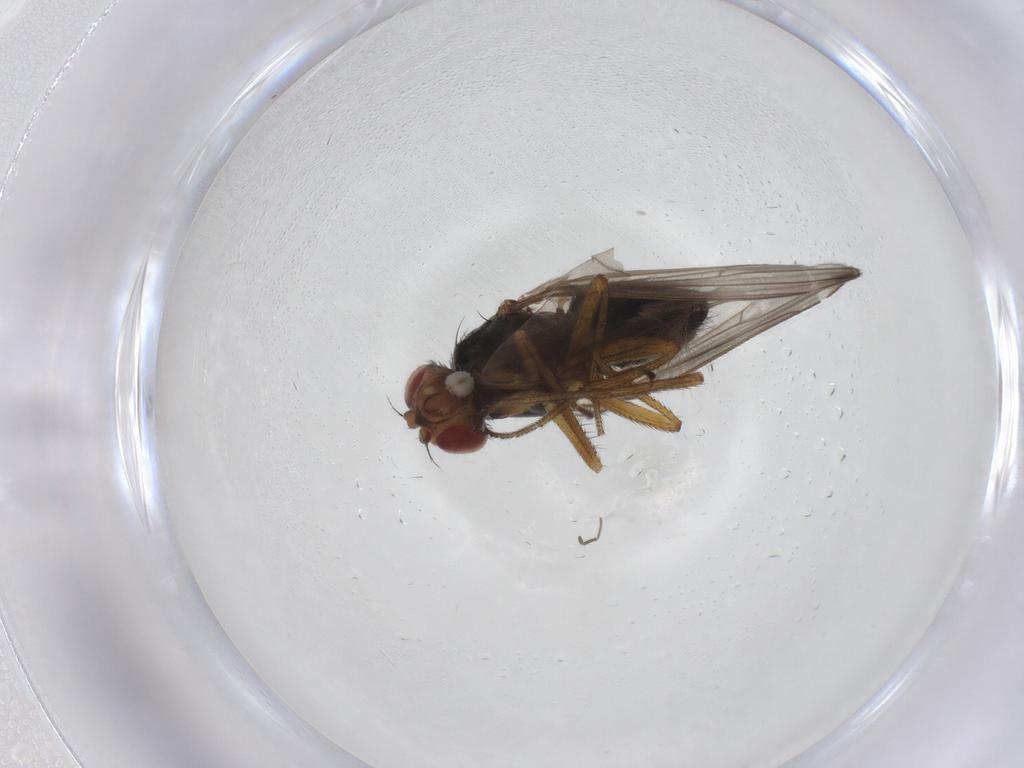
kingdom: Animalia
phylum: Arthropoda
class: Insecta
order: Diptera
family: Drosophilidae
